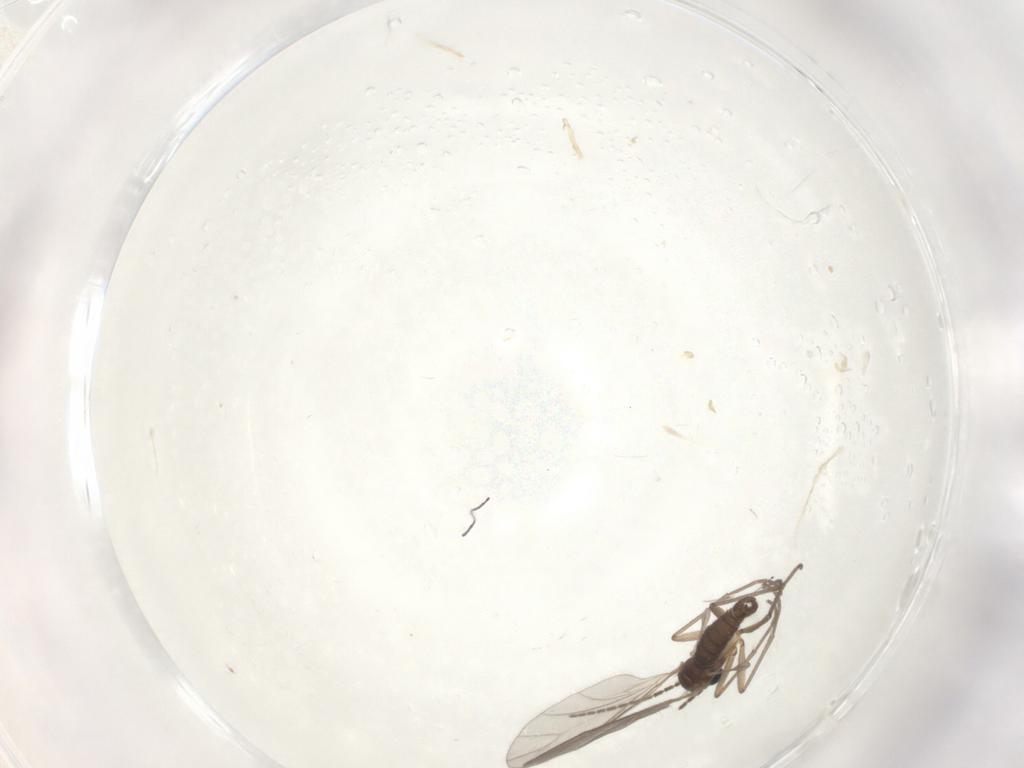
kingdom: Animalia
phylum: Arthropoda
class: Insecta
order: Diptera
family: Sciaridae
